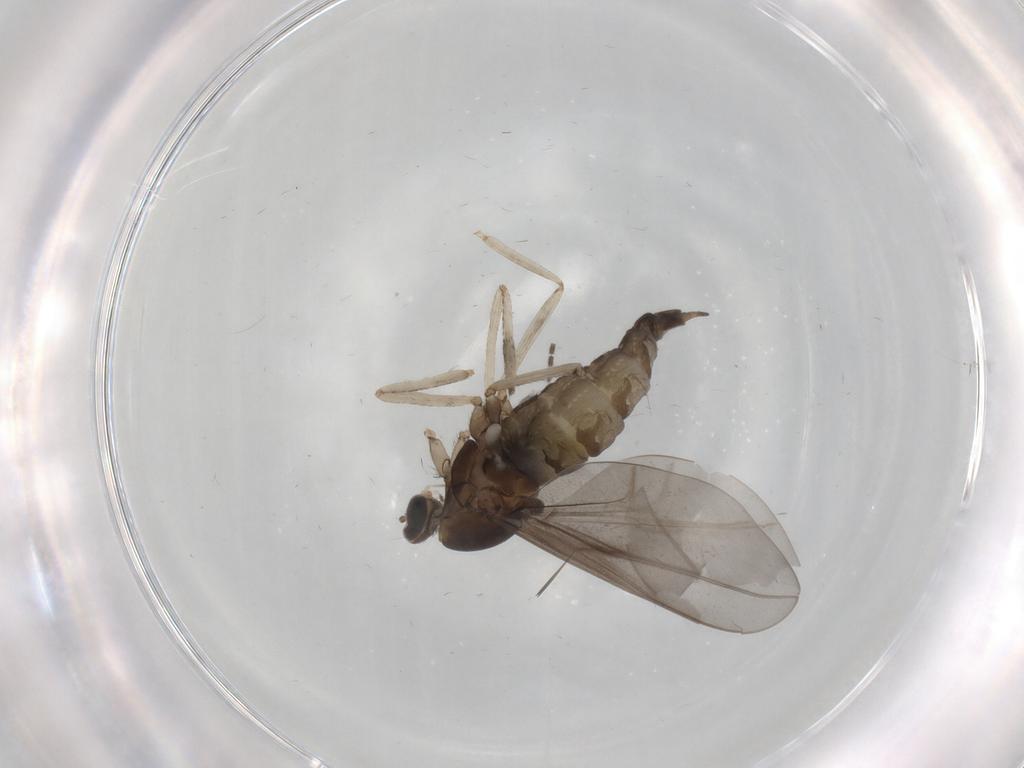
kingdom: Animalia
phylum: Arthropoda
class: Insecta
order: Diptera
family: Cecidomyiidae
